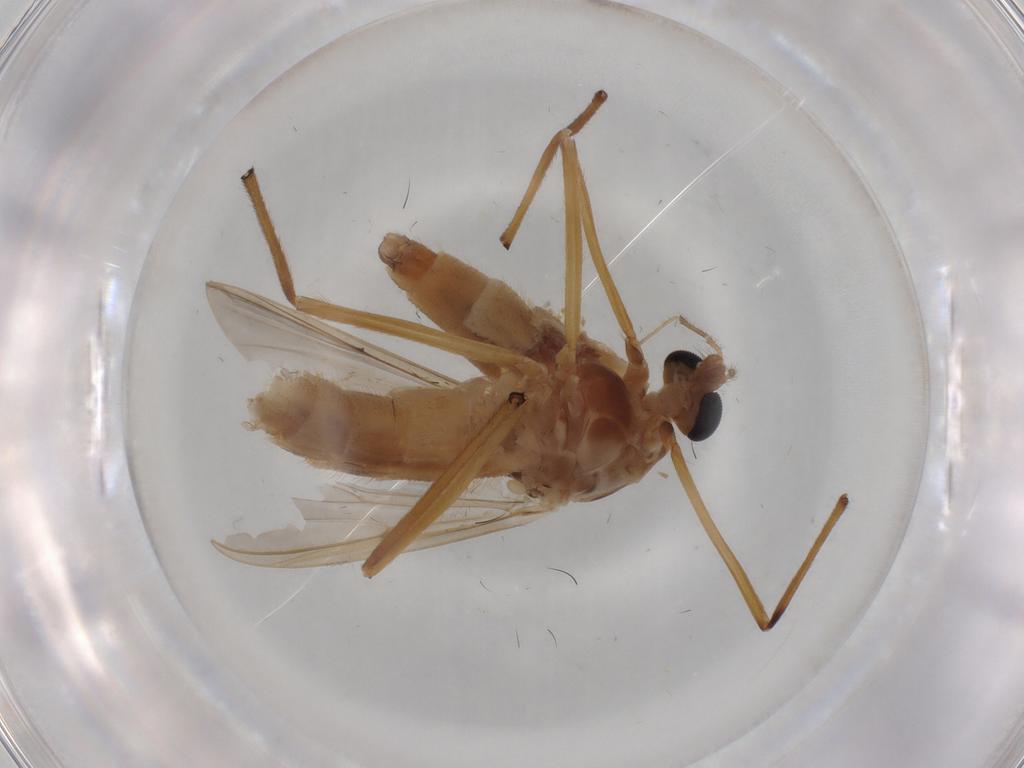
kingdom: Animalia
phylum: Arthropoda
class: Insecta
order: Diptera
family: Chironomidae
